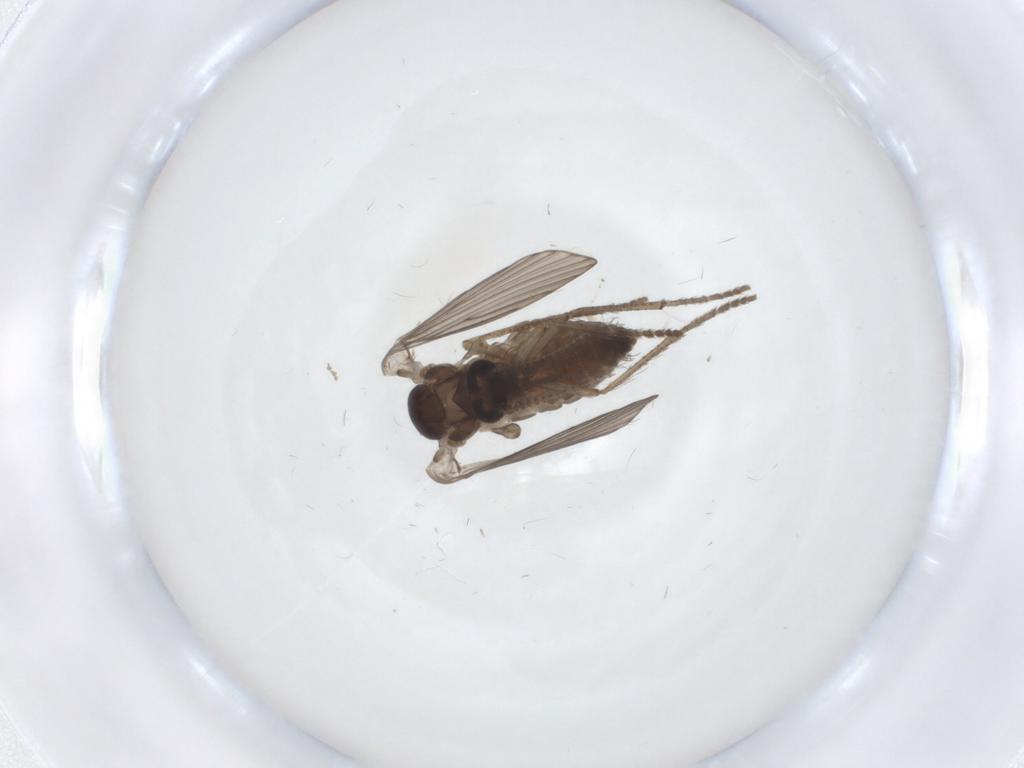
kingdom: Animalia
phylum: Arthropoda
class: Insecta
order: Diptera
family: Psychodidae
